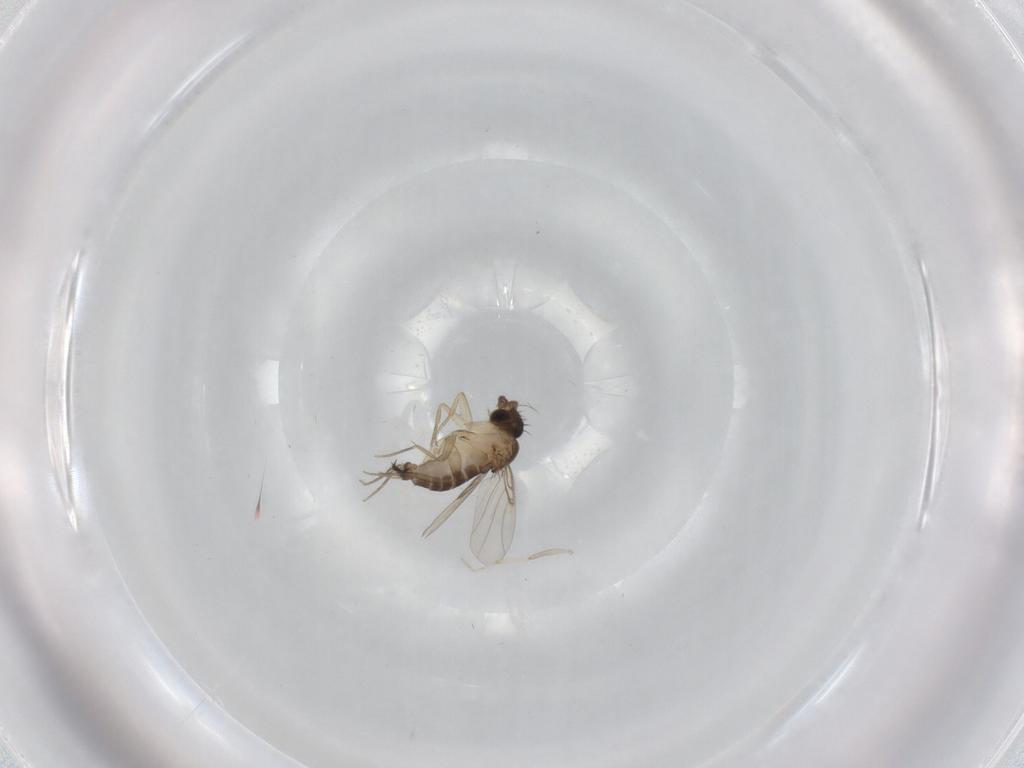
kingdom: Animalia
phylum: Arthropoda
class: Insecta
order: Diptera
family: Phoridae
